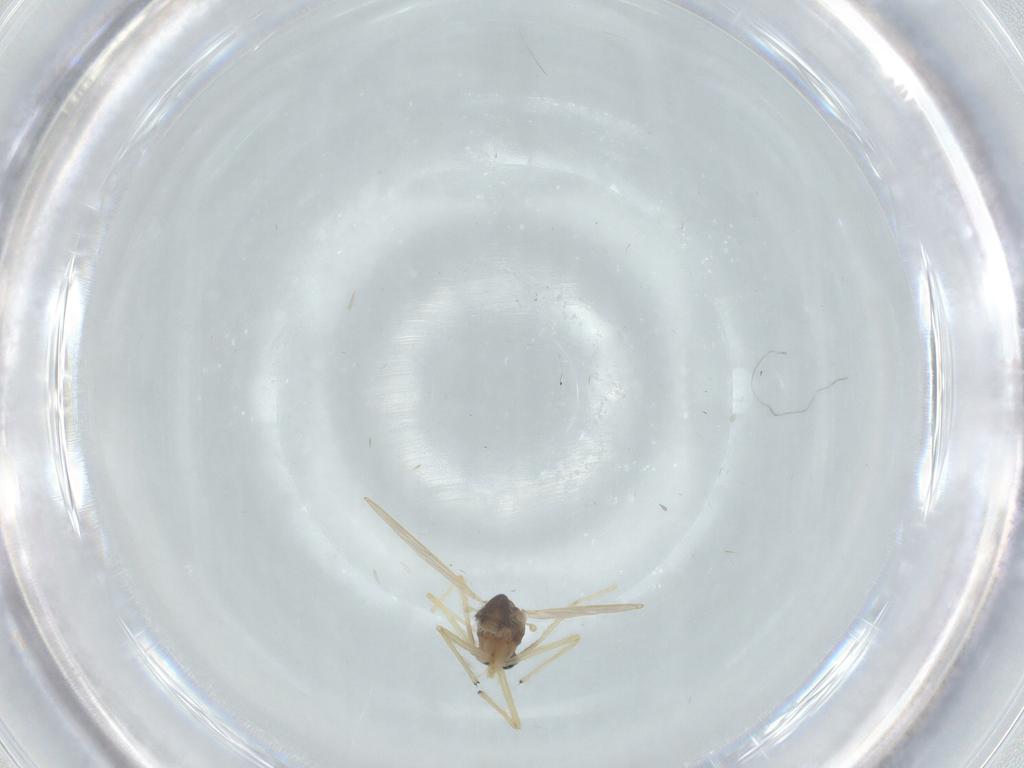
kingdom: Animalia
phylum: Arthropoda
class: Insecta
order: Diptera
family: Chironomidae
